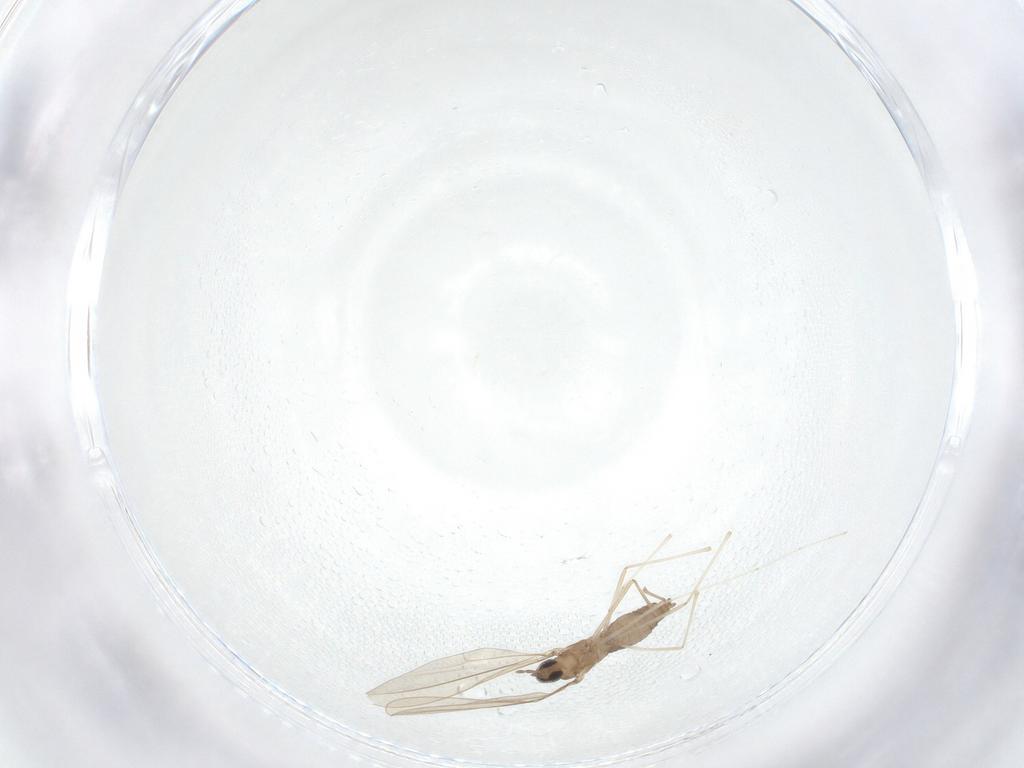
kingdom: Animalia
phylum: Arthropoda
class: Insecta
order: Diptera
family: Cecidomyiidae
